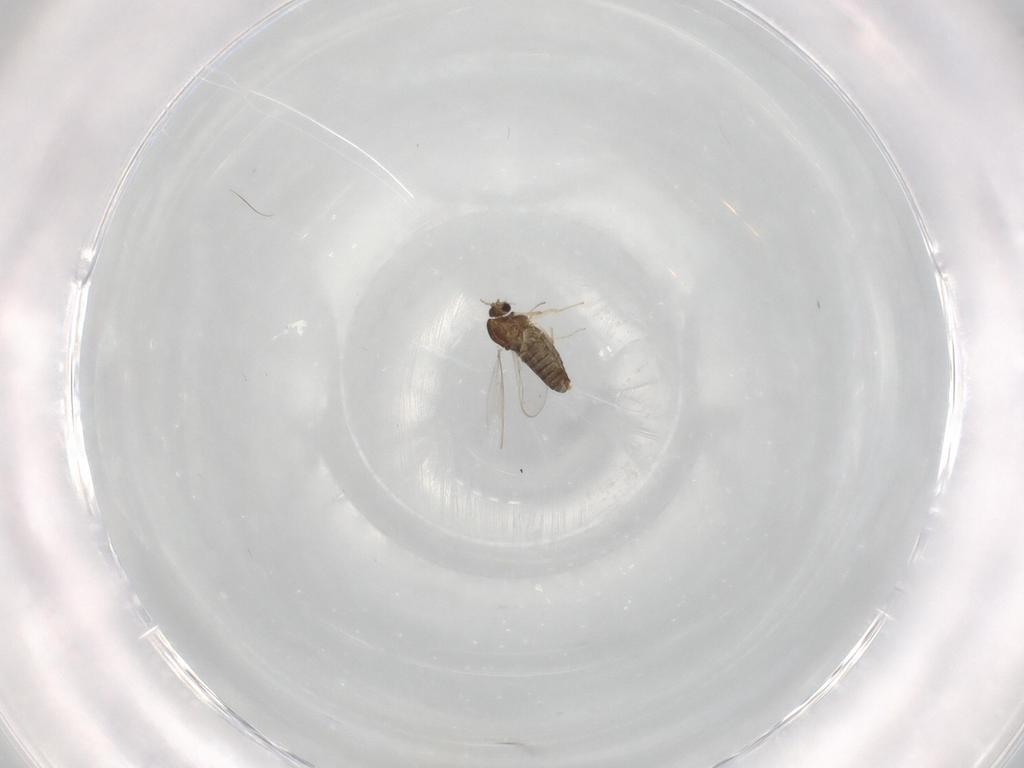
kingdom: Animalia
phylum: Arthropoda
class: Insecta
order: Diptera
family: Chironomidae
